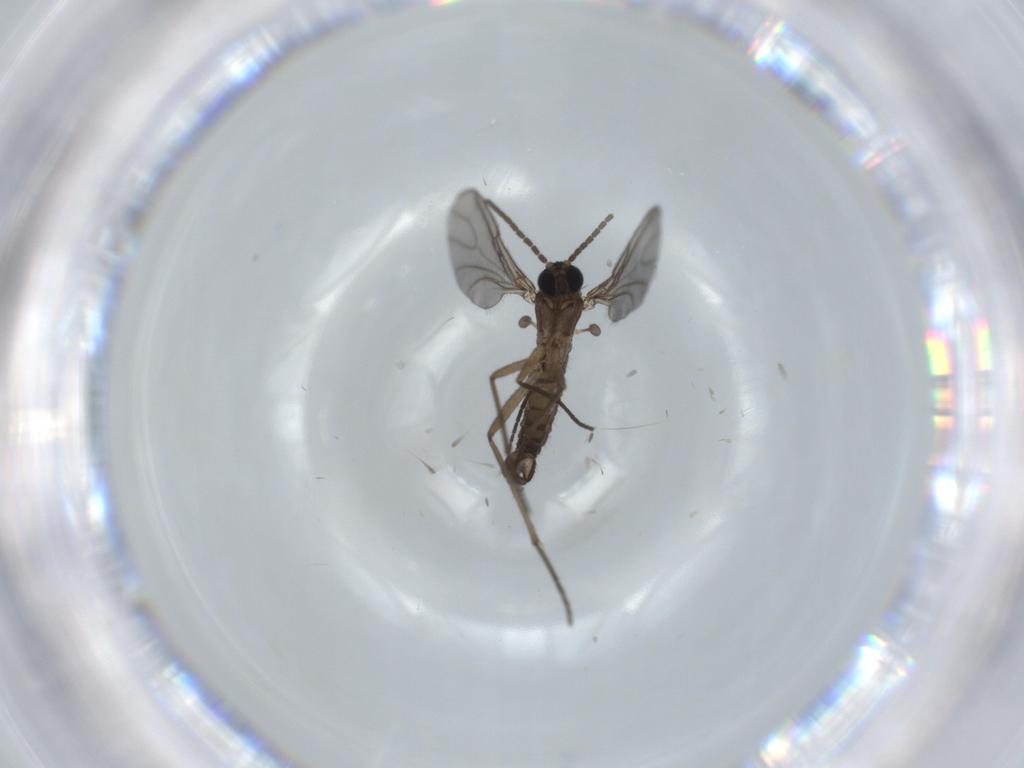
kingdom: Animalia
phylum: Arthropoda
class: Insecta
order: Diptera
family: Sciaridae
